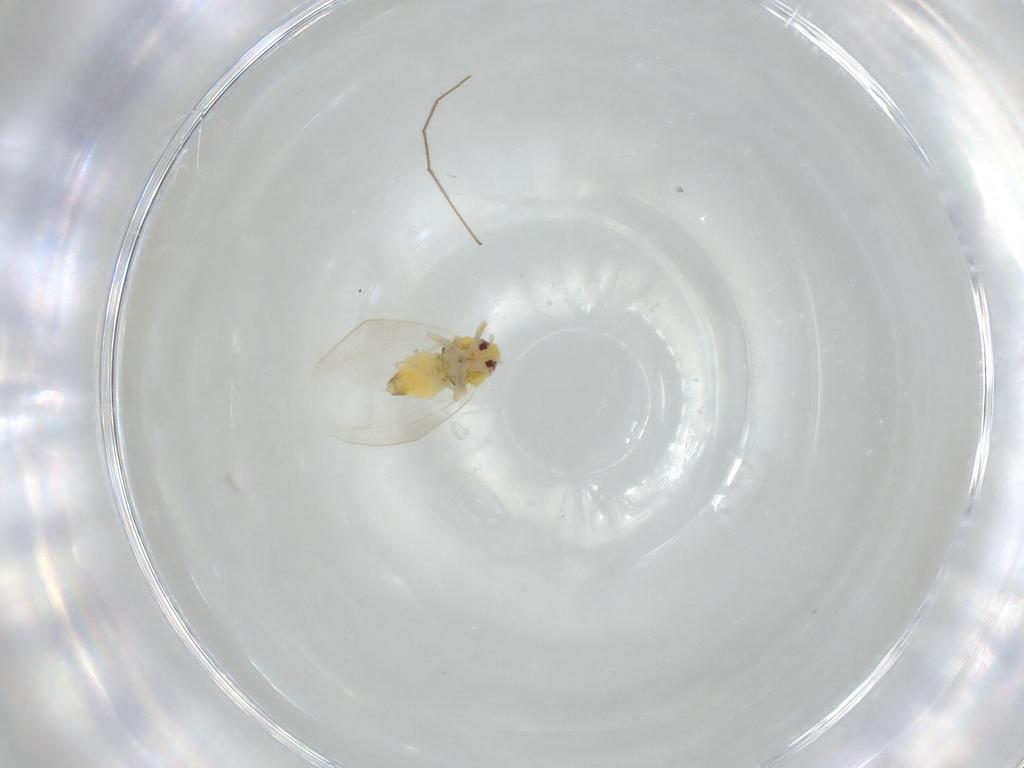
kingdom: Animalia
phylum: Arthropoda
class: Insecta
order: Hemiptera
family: Aleyrodidae
